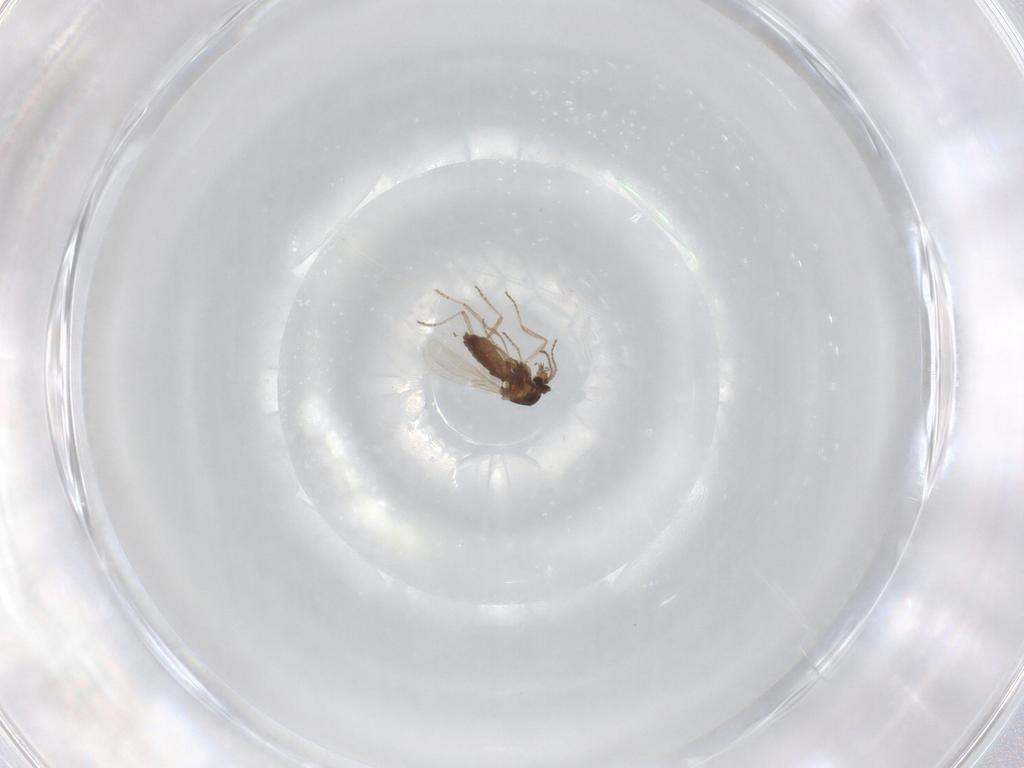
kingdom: Animalia
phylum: Arthropoda
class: Insecta
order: Diptera
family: Ceratopogonidae
